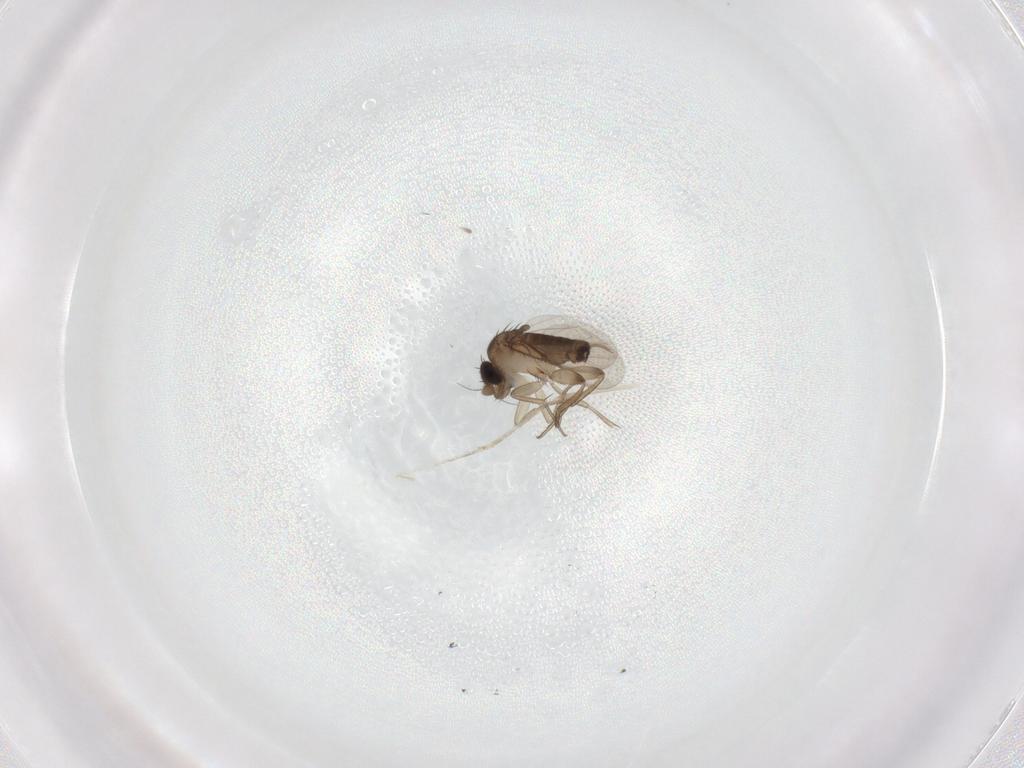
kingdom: Animalia
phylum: Arthropoda
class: Insecta
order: Diptera
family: Phoridae
